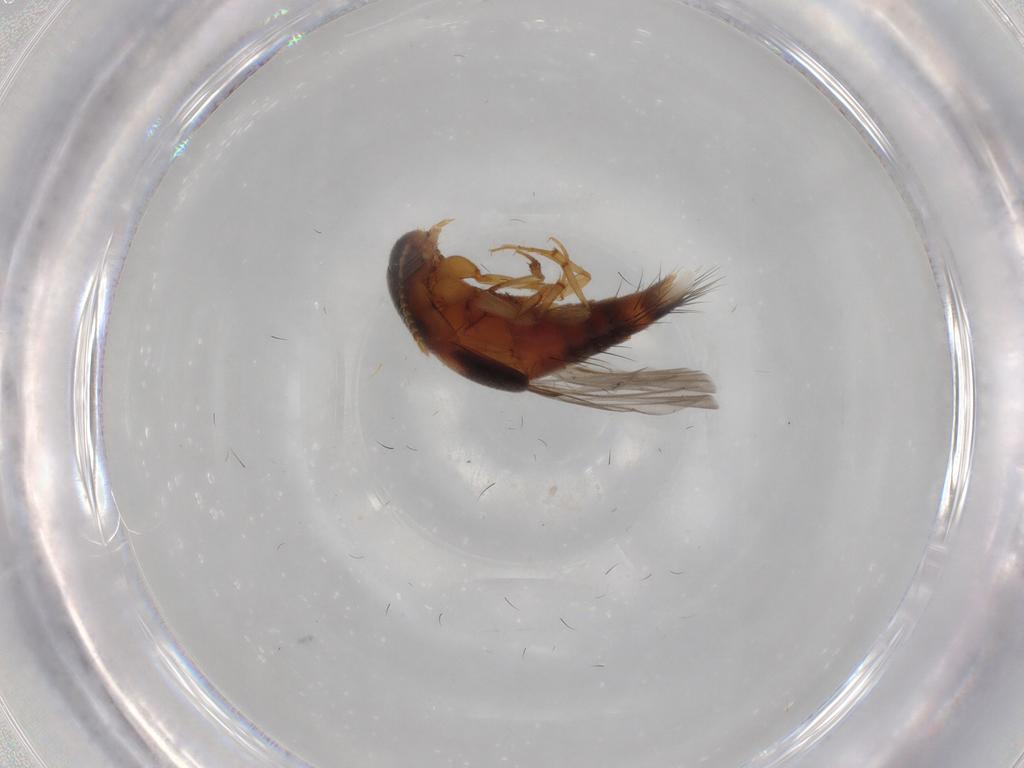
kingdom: Animalia
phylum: Arthropoda
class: Insecta
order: Coleoptera
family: Staphylinidae
